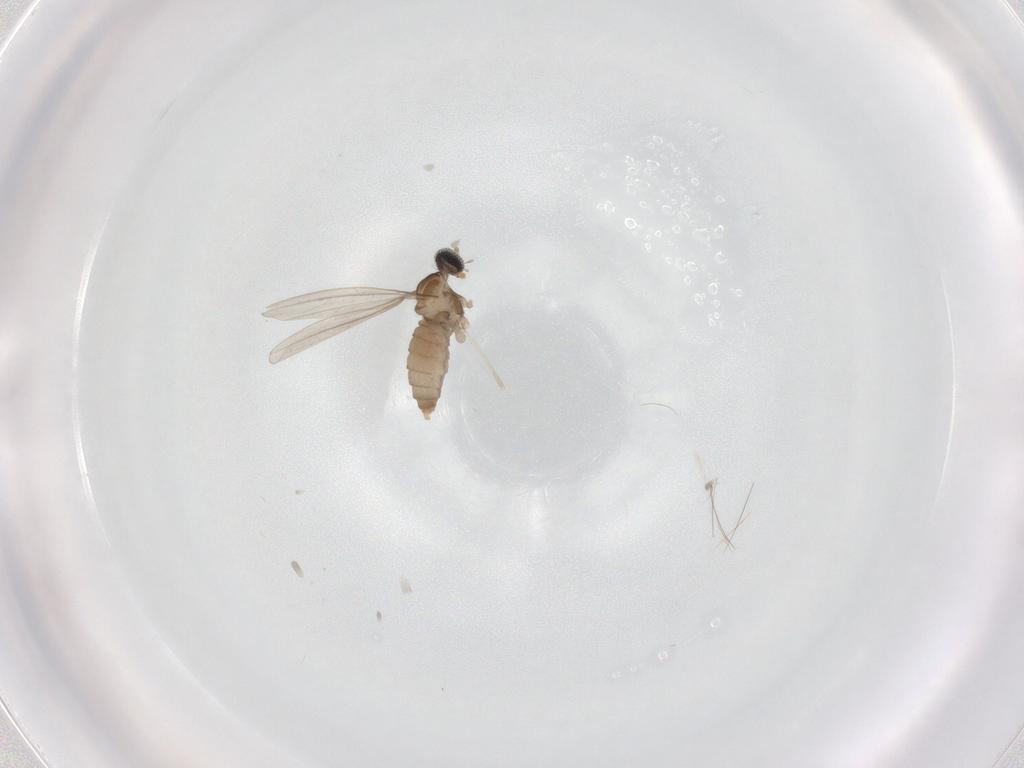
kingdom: Animalia
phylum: Arthropoda
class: Insecta
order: Diptera
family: Cecidomyiidae
